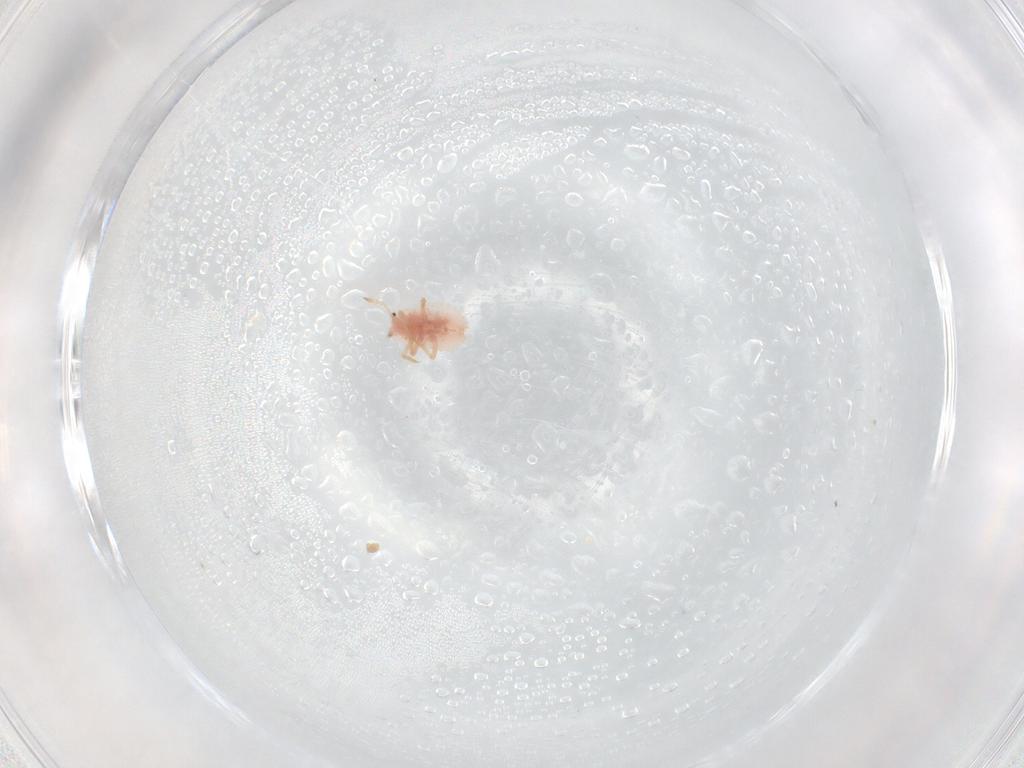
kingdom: Animalia
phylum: Arthropoda
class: Insecta
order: Hemiptera
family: Coccoidea_incertae_sedis
